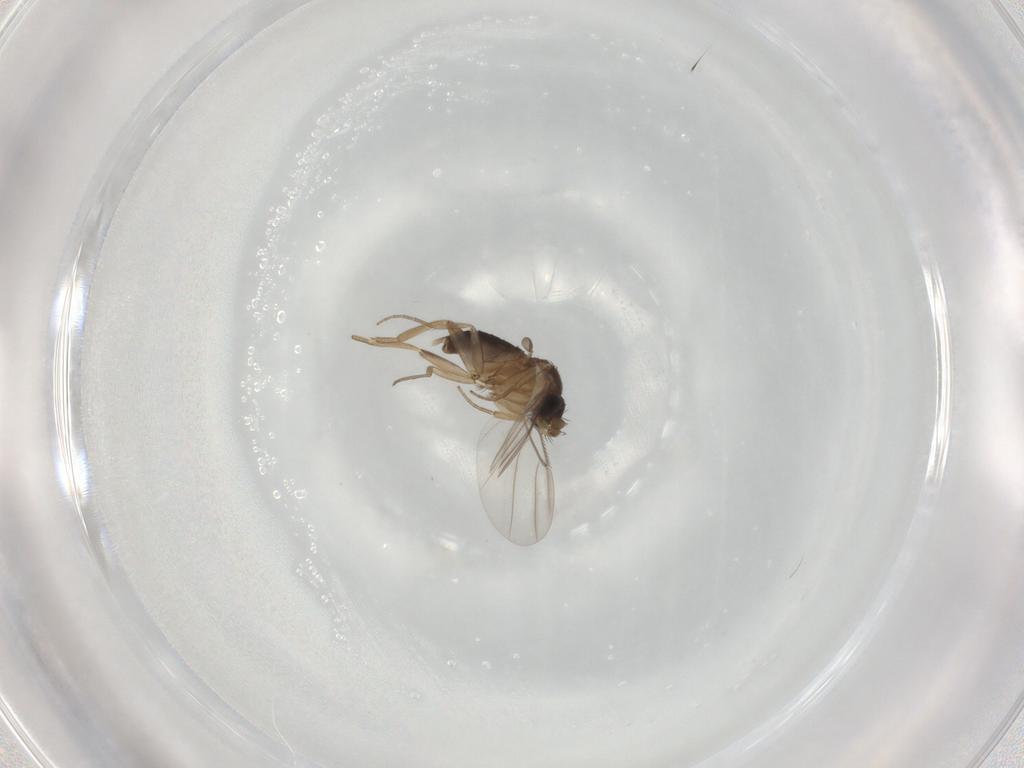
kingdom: Animalia
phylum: Arthropoda
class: Insecta
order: Diptera
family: Phoridae
